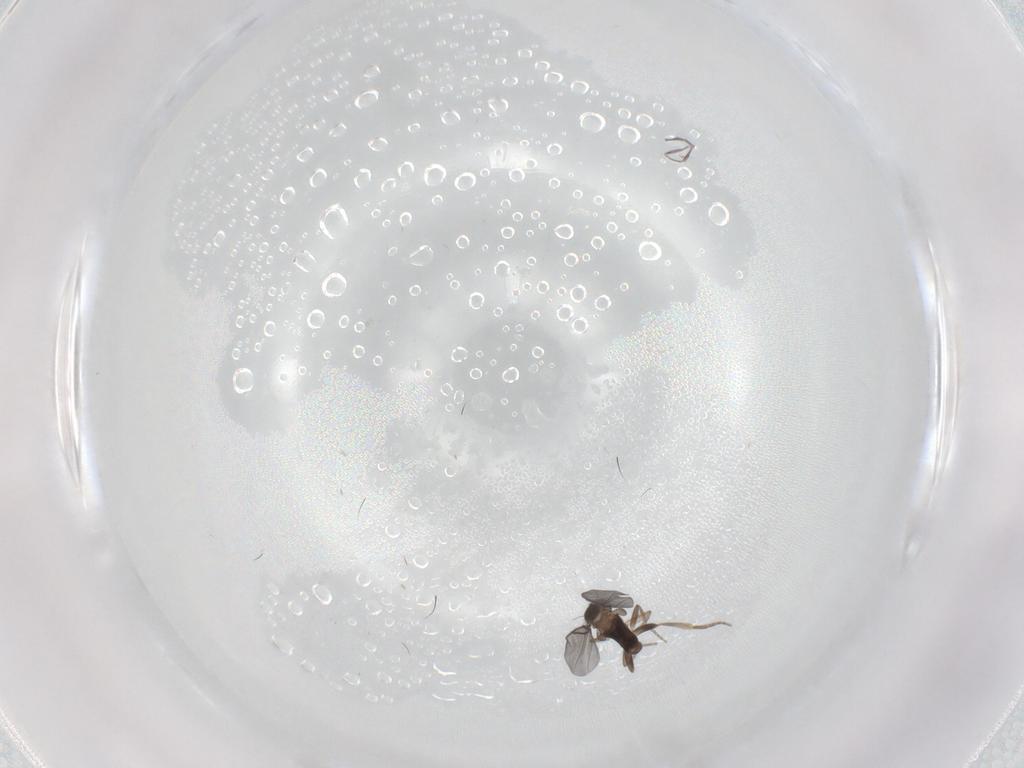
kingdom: Animalia
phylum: Arthropoda
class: Insecta
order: Diptera
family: Sciaridae
